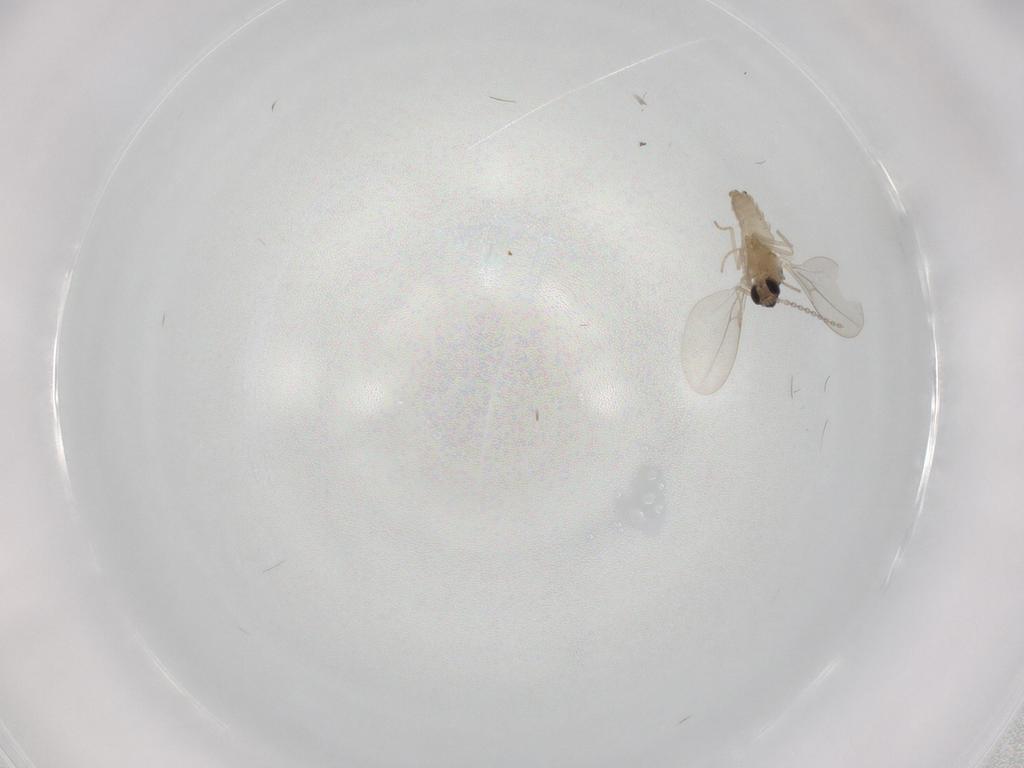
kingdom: Animalia
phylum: Arthropoda
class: Insecta
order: Diptera
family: Cecidomyiidae
